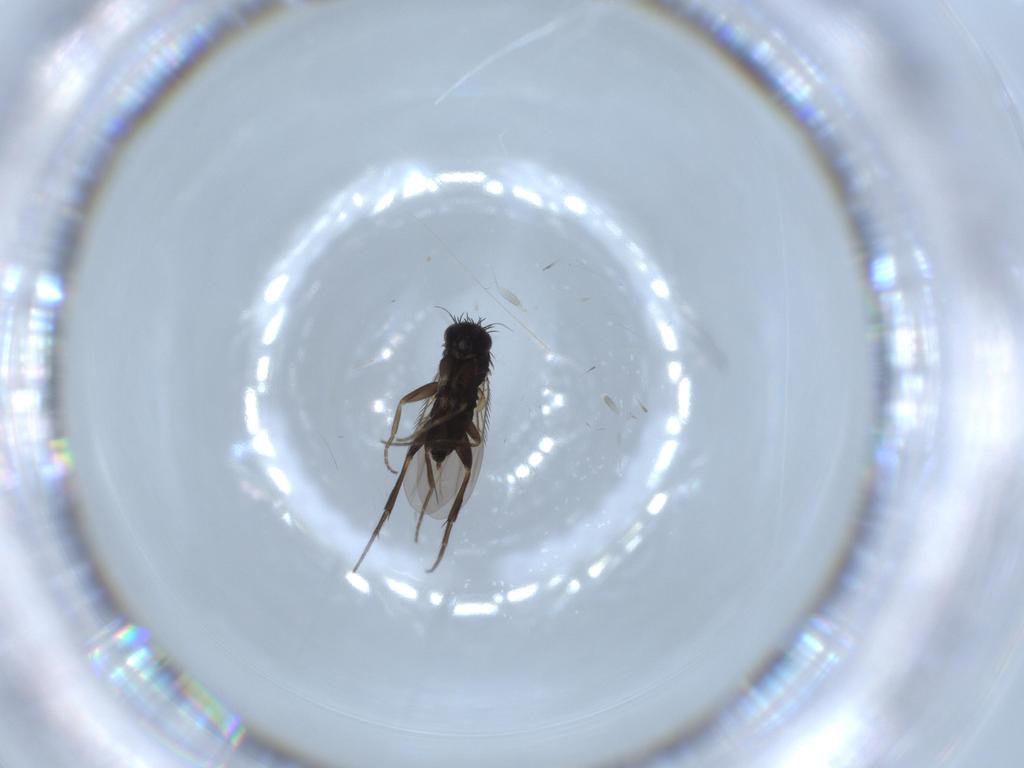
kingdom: Animalia
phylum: Arthropoda
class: Insecta
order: Diptera
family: Phoridae
